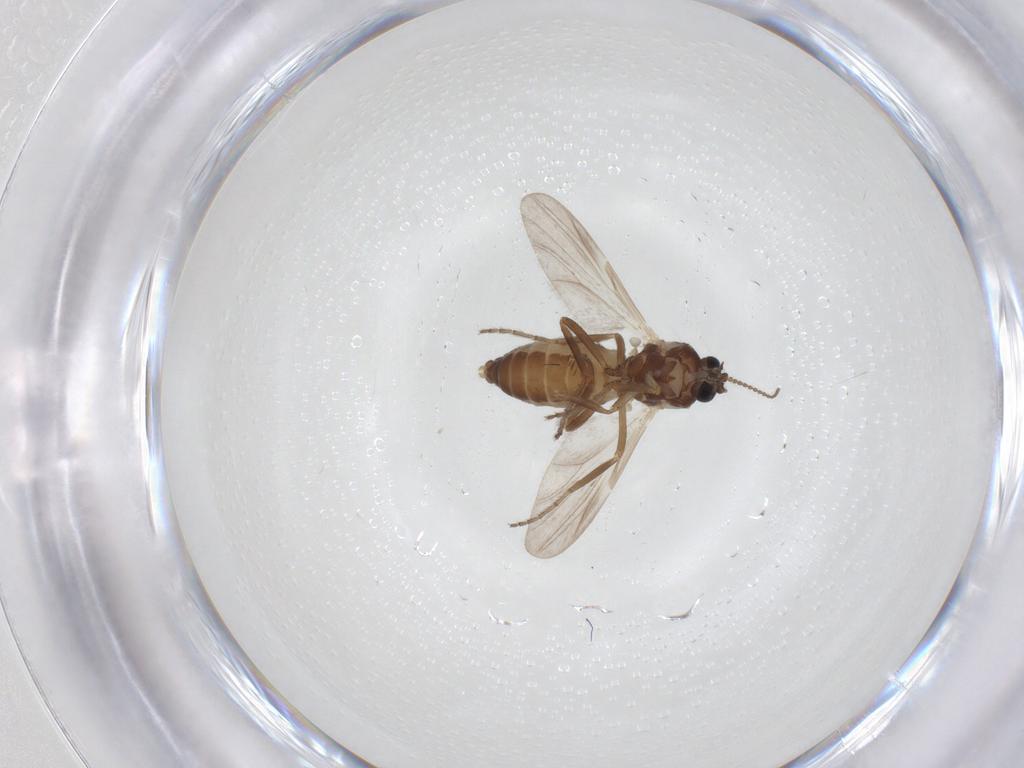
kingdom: Animalia
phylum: Arthropoda
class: Insecta
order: Diptera
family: Ceratopogonidae
